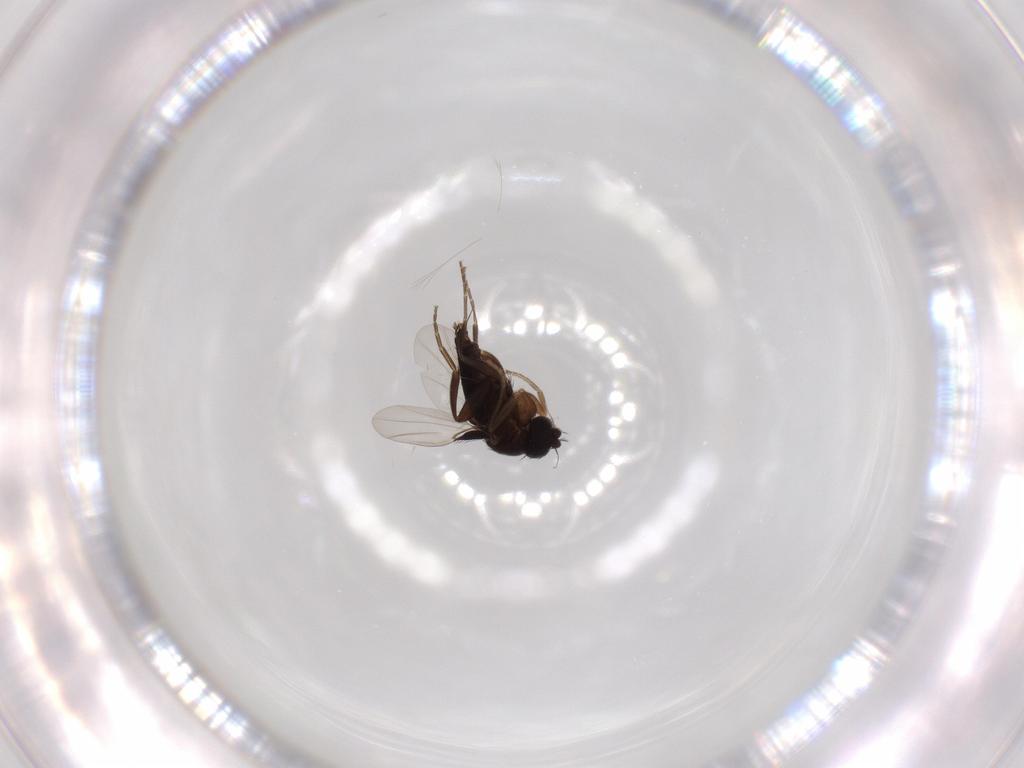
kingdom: Animalia
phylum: Arthropoda
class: Insecta
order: Diptera
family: Phoridae
